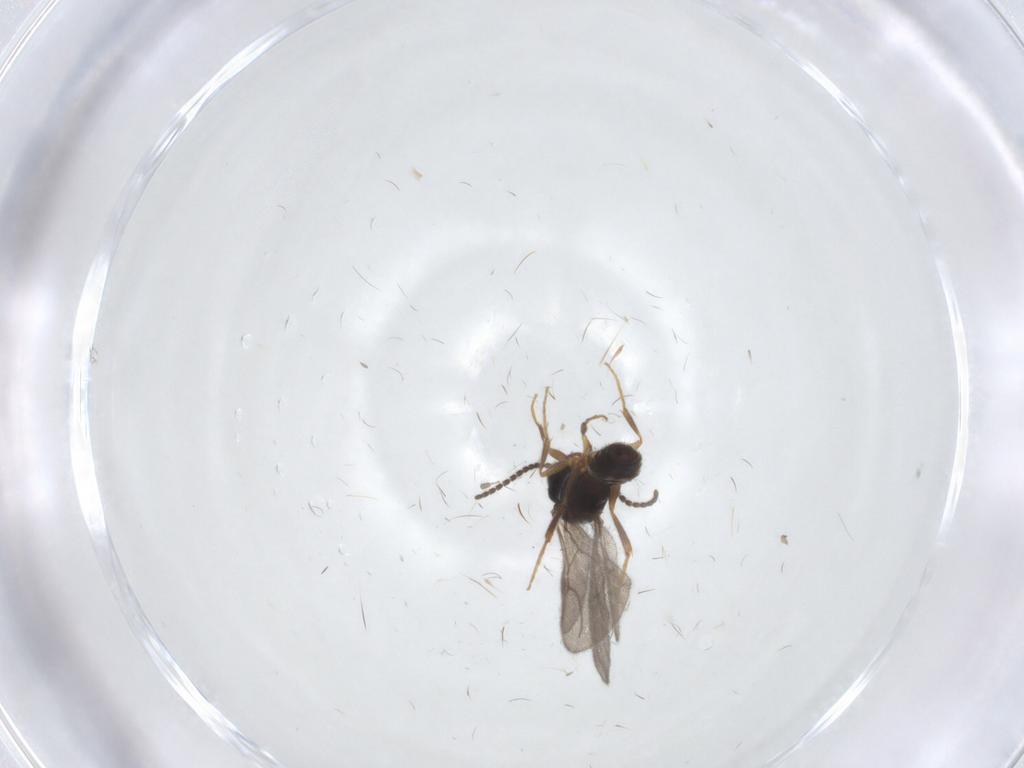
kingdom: Animalia
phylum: Arthropoda
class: Insecta
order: Hymenoptera
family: Bethylidae
